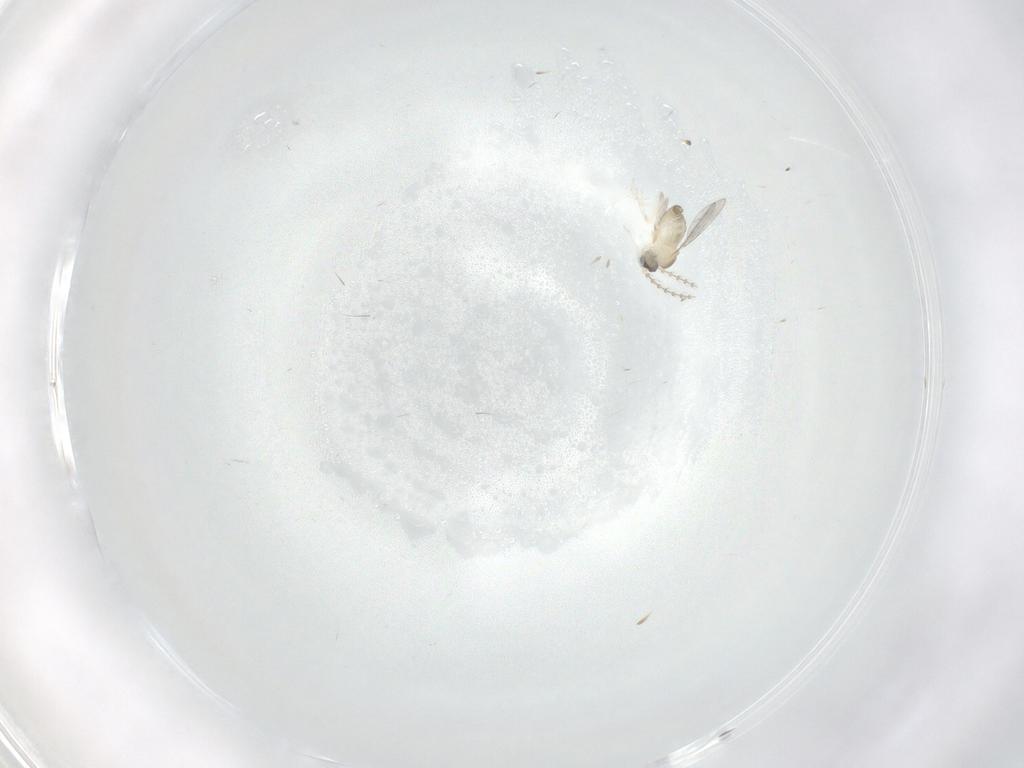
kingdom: Animalia
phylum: Arthropoda
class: Insecta
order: Diptera
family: Cecidomyiidae
